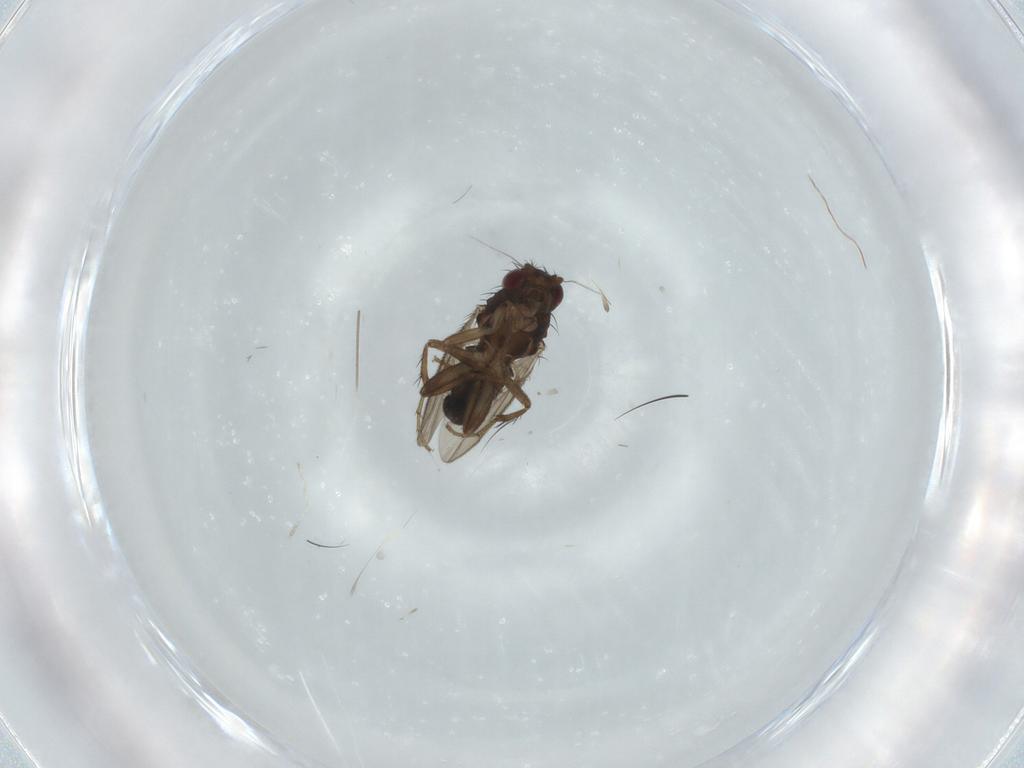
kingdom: Animalia
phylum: Arthropoda
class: Insecta
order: Diptera
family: Sphaeroceridae
